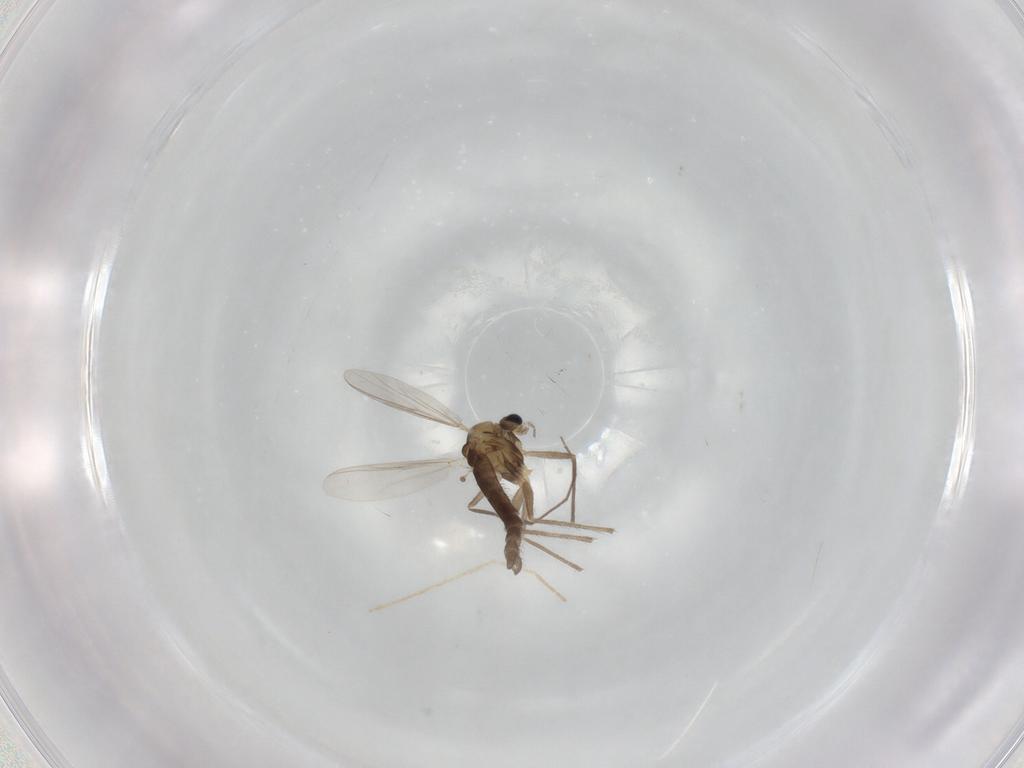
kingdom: Animalia
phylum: Arthropoda
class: Insecta
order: Diptera
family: Chironomidae
